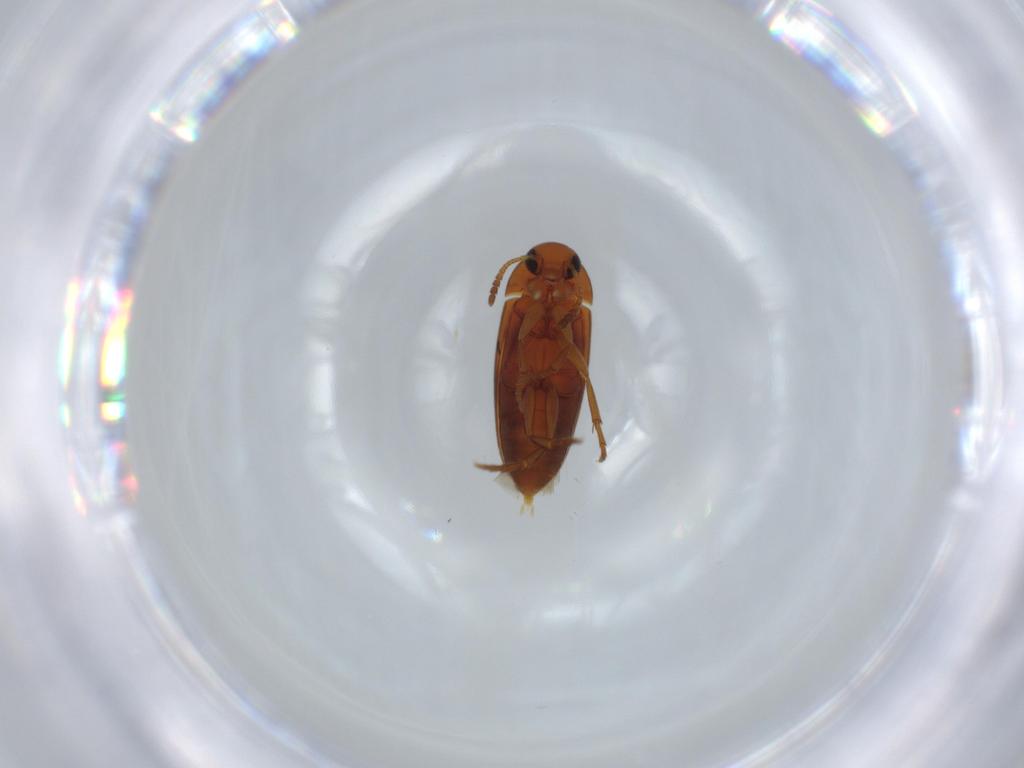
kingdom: Animalia
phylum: Arthropoda
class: Insecta
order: Coleoptera
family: Scraptiidae
